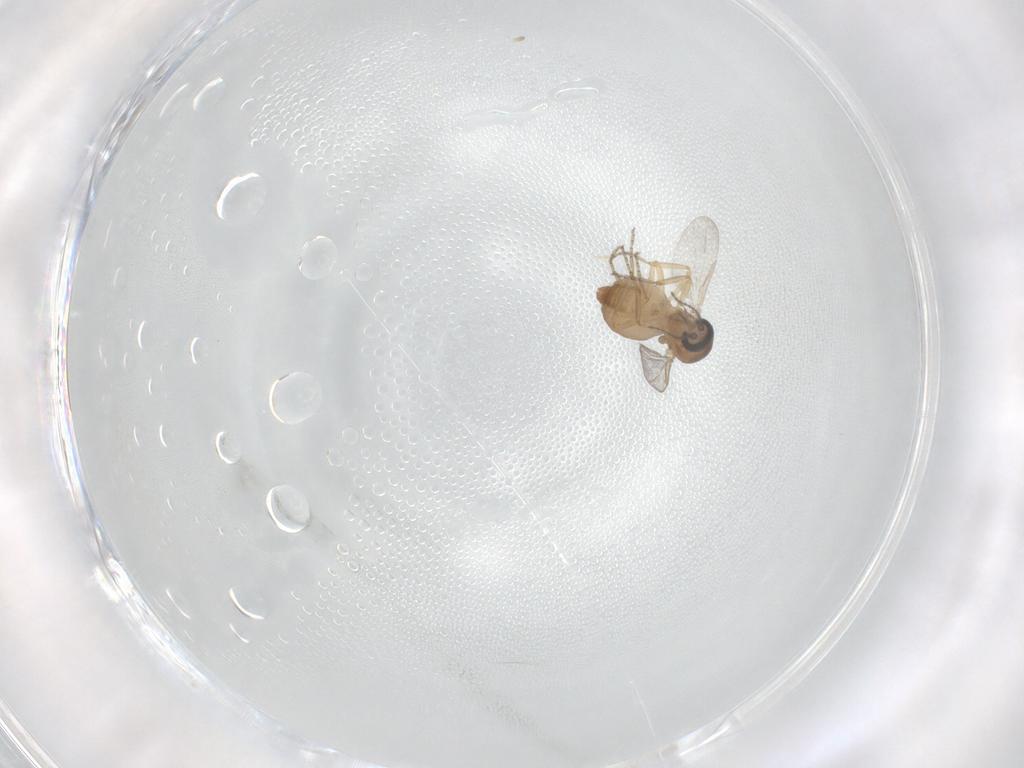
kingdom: Animalia
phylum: Arthropoda
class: Insecta
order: Diptera
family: Ceratopogonidae
